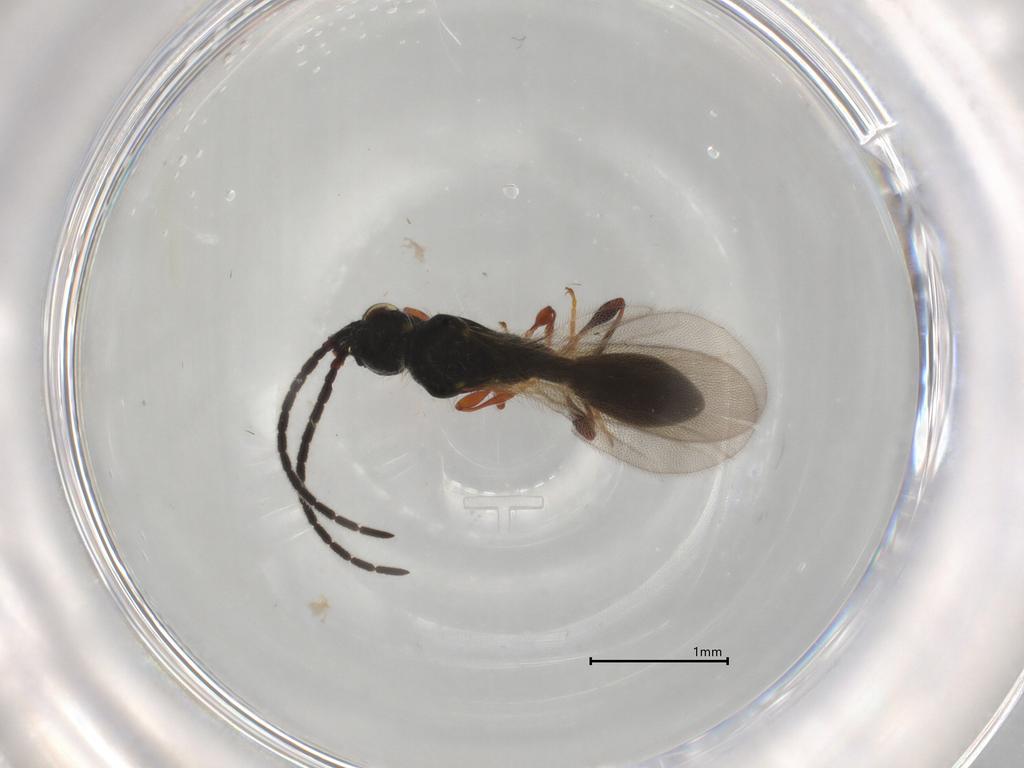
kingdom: Animalia
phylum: Arthropoda
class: Insecta
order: Hymenoptera
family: Diapriidae
